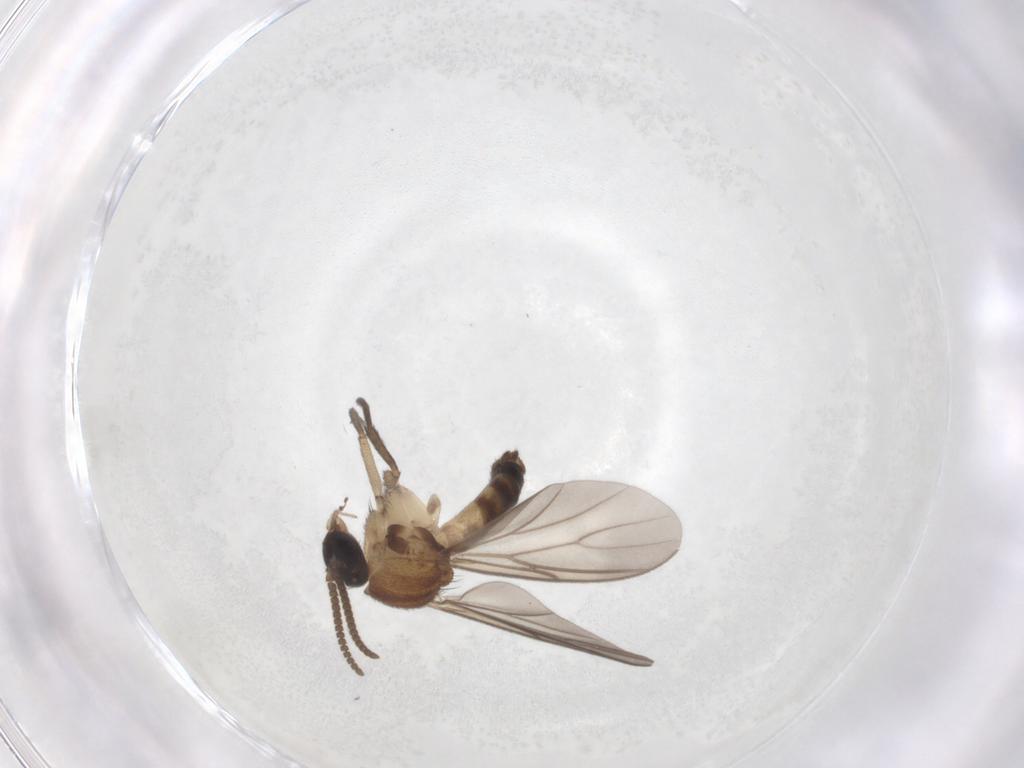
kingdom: Animalia
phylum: Arthropoda
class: Insecta
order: Diptera
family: Mycetophilidae
